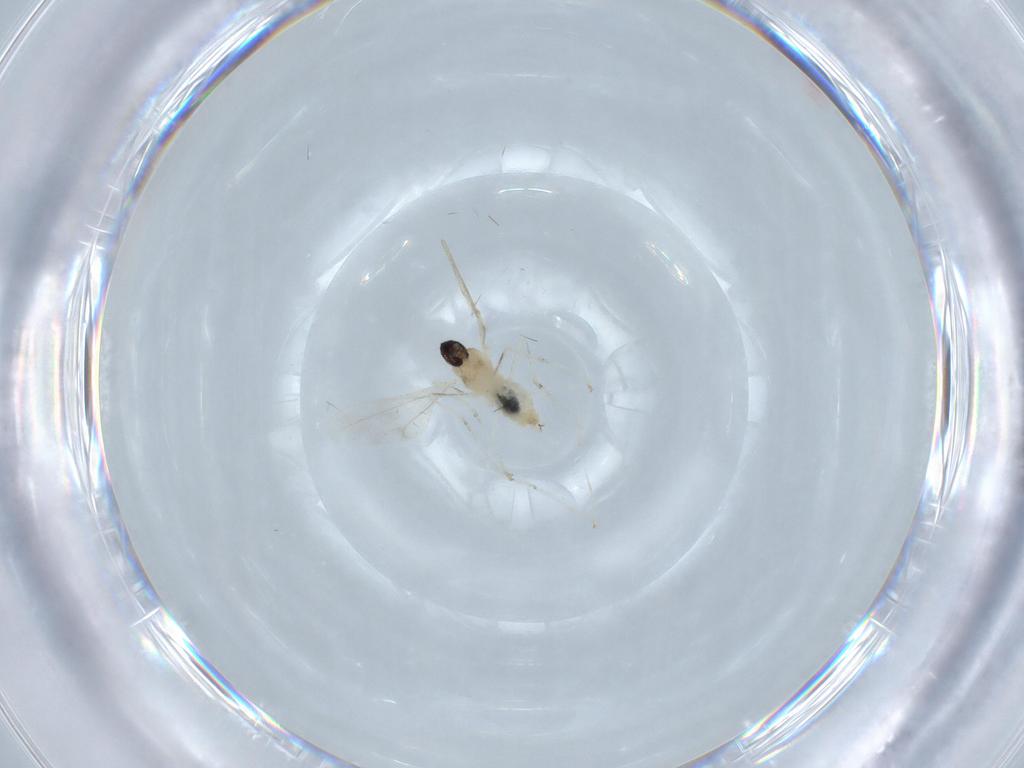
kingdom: Animalia
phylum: Arthropoda
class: Insecta
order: Diptera
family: Cecidomyiidae
